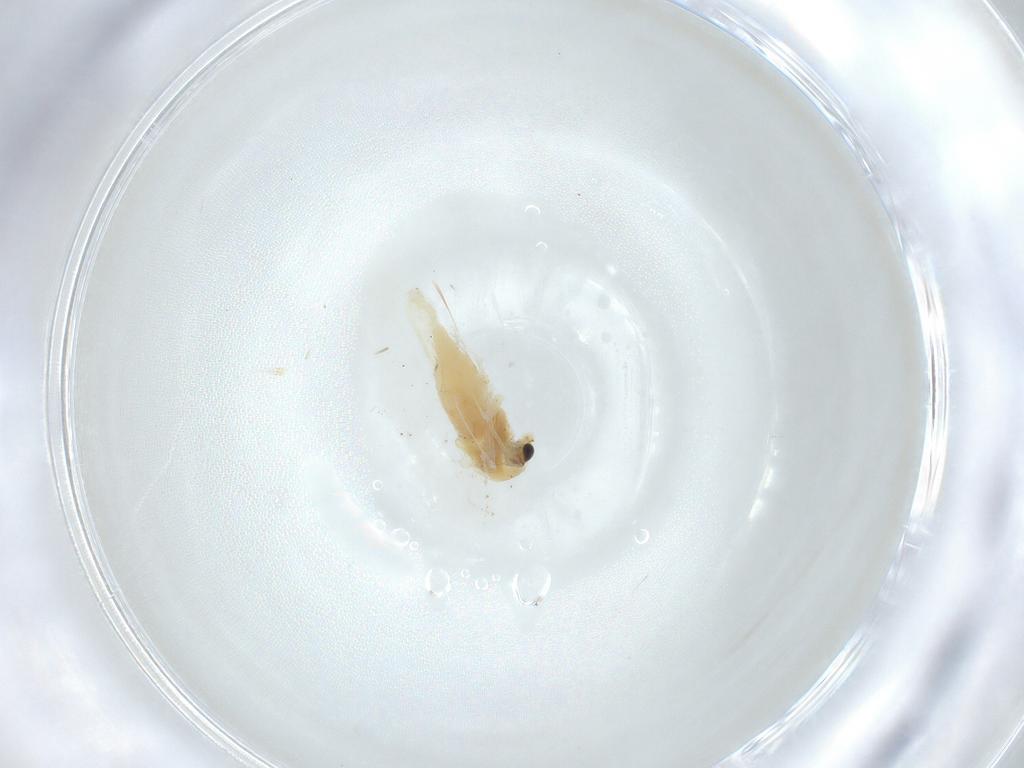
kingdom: Animalia
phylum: Arthropoda
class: Insecta
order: Diptera
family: Chironomidae
